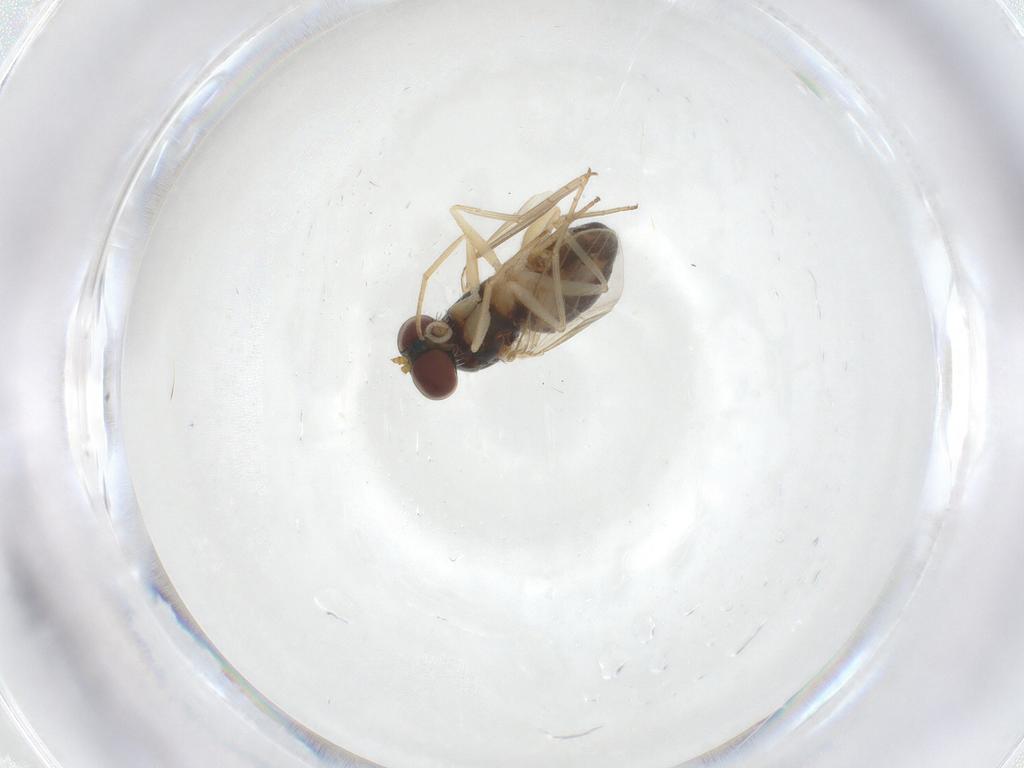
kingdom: Animalia
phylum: Arthropoda
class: Insecta
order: Diptera
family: Dolichopodidae
